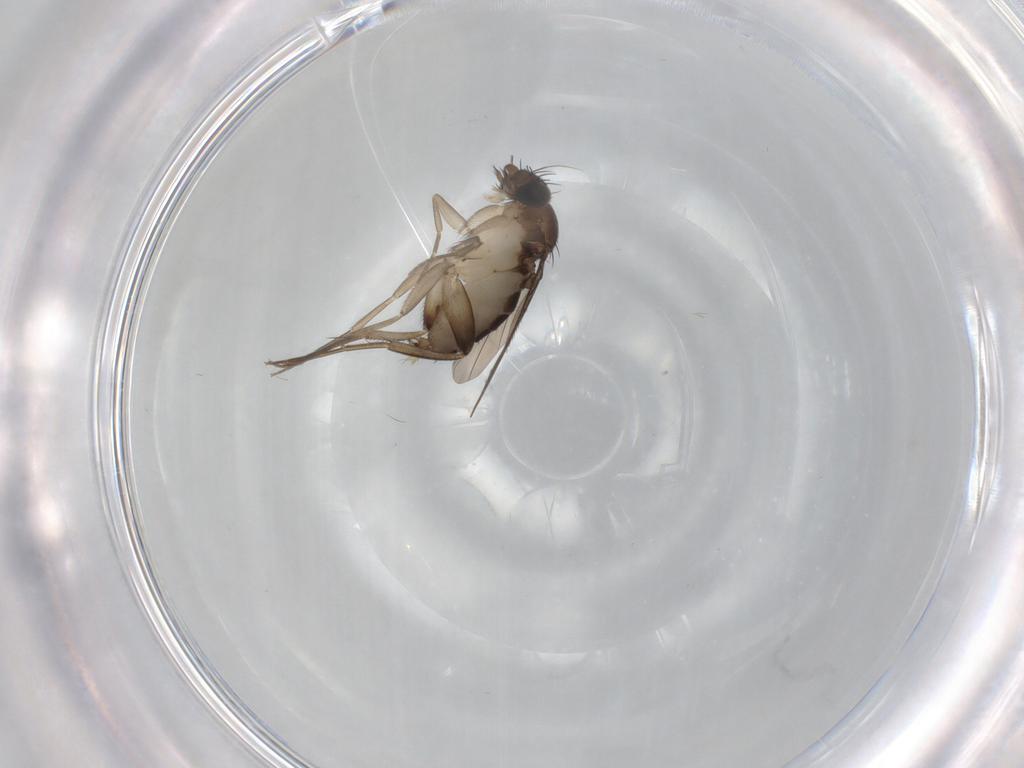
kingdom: Animalia
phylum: Arthropoda
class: Insecta
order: Diptera
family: Phoridae
